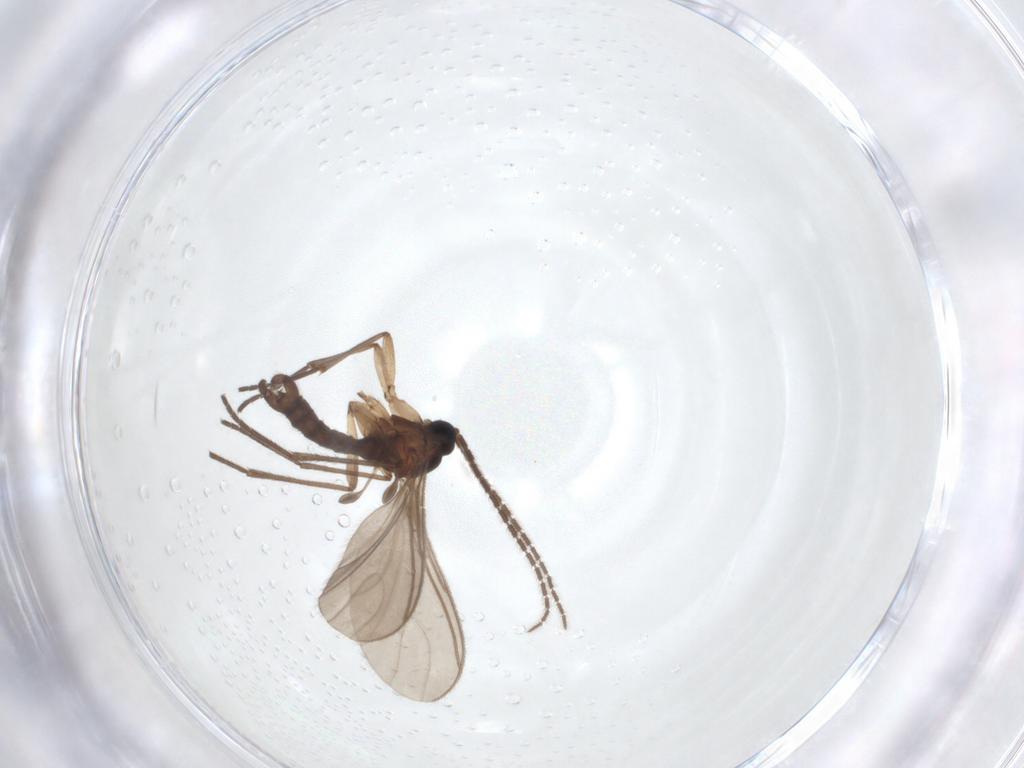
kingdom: Animalia
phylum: Arthropoda
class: Insecta
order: Diptera
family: Sciaridae
